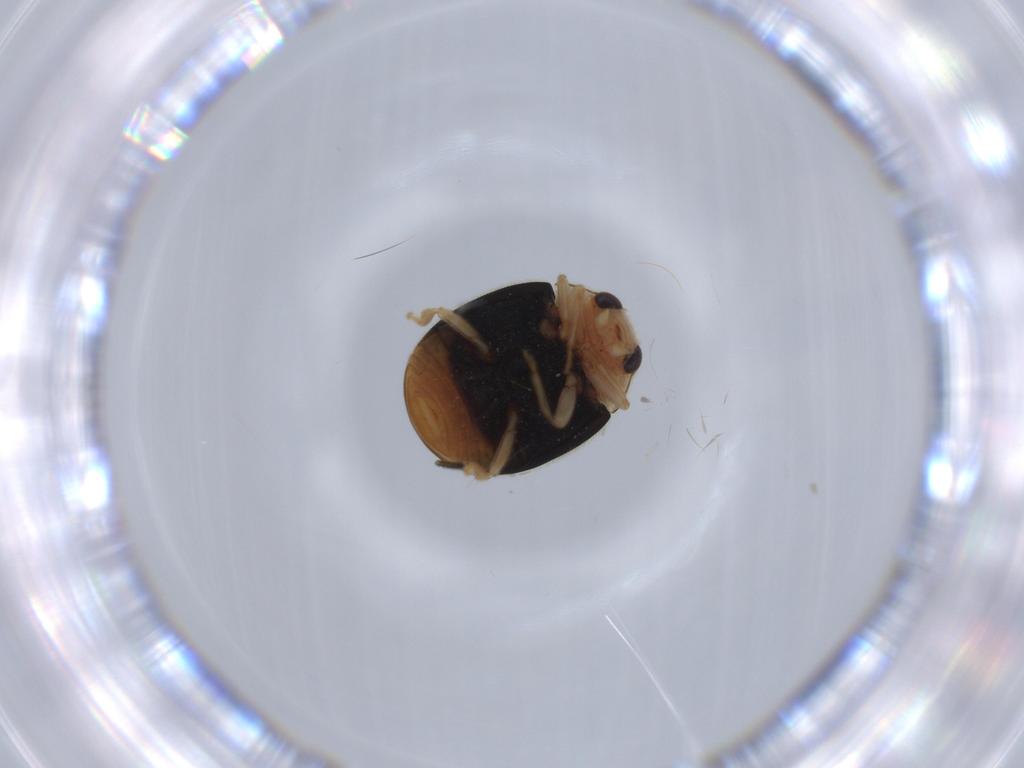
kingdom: Animalia
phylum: Arthropoda
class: Insecta
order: Coleoptera
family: Coccinellidae
